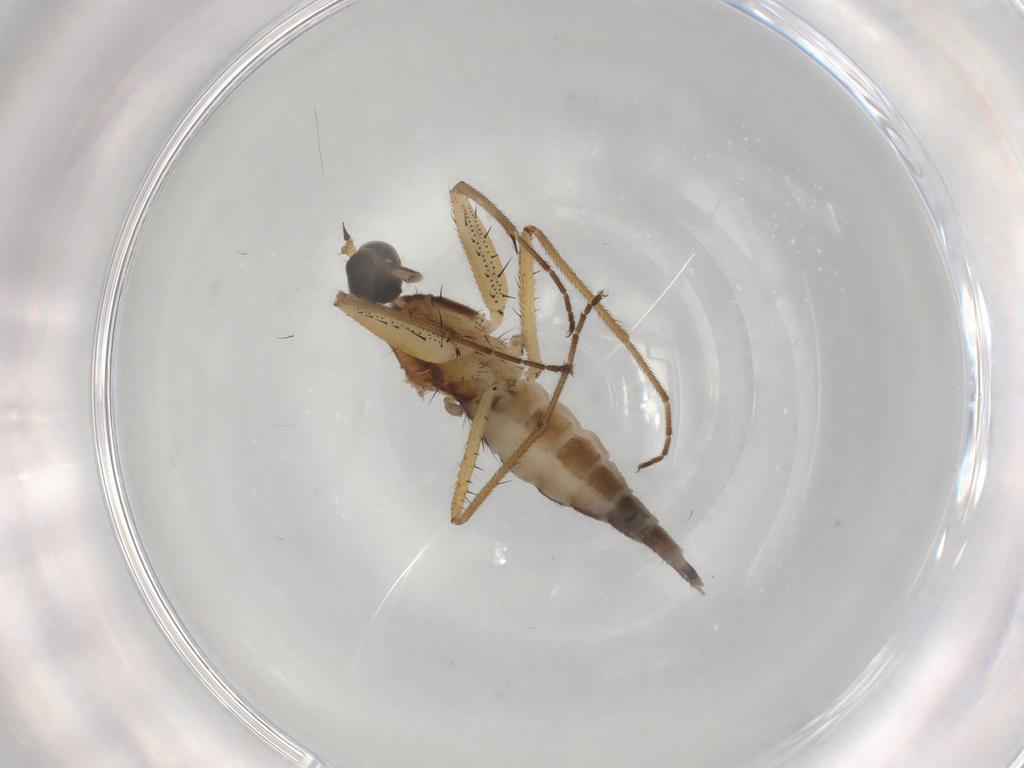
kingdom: Animalia
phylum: Arthropoda
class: Insecta
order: Diptera
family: Empididae
